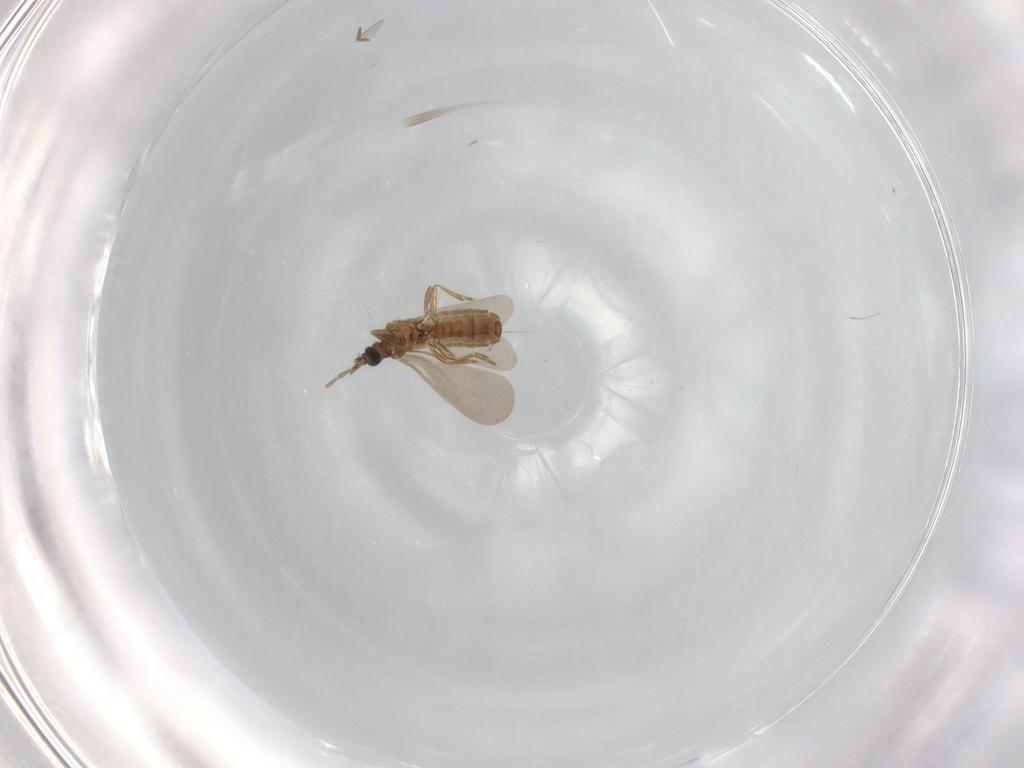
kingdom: Animalia
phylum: Arthropoda
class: Insecta
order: Hemiptera
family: Enicocephalidae
